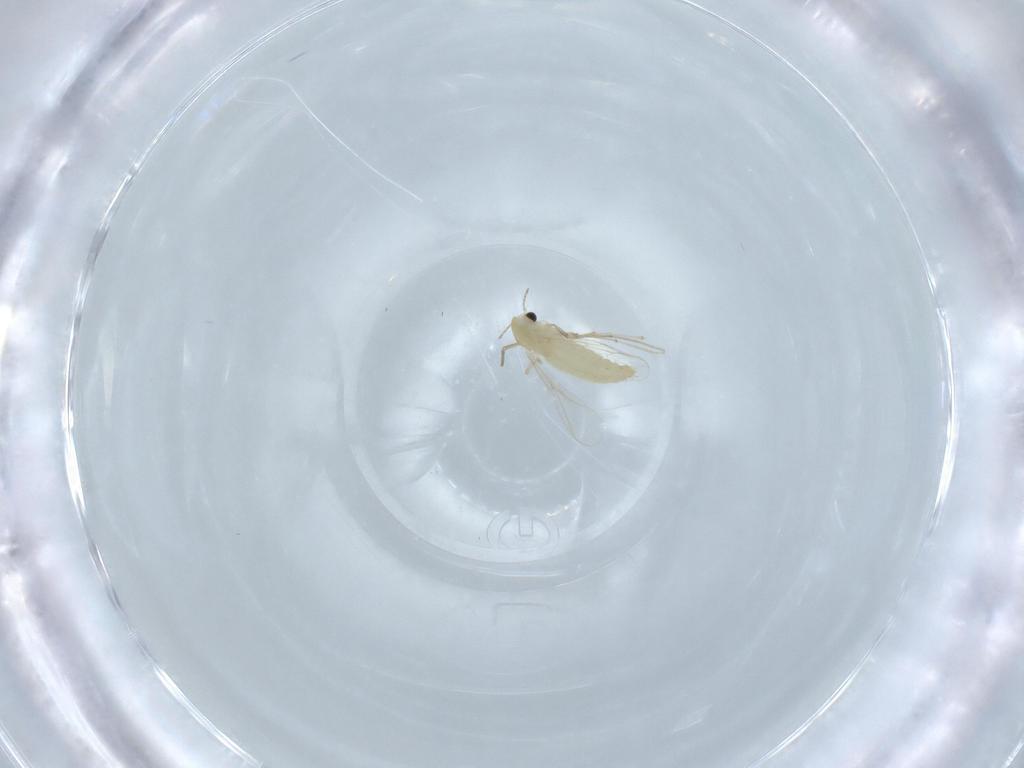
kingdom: Animalia
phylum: Arthropoda
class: Insecta
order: Diptera
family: Chironomidae
